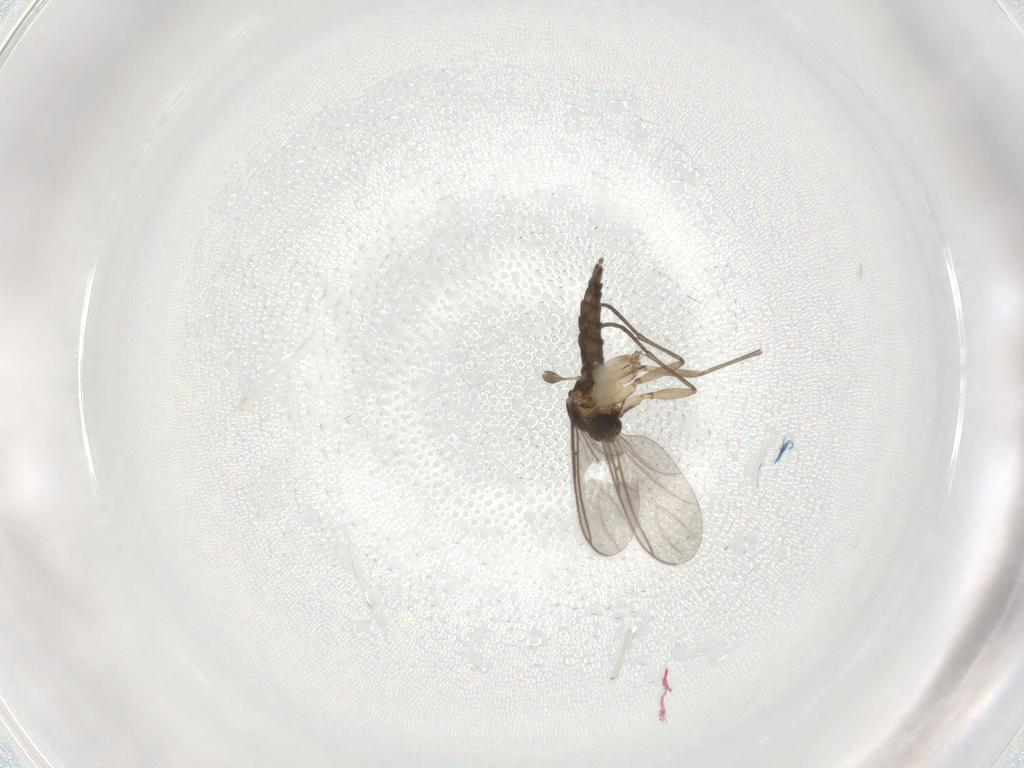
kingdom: Animalia
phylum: Arthropoda
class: Insecta
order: Diptera
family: Sciaridae
